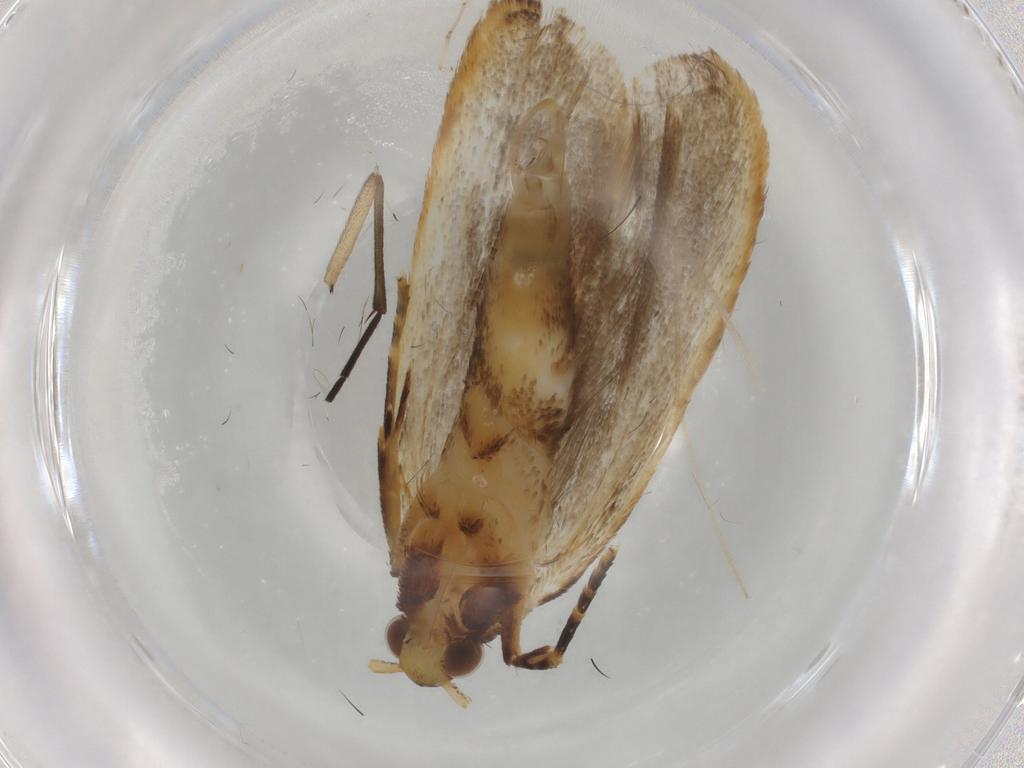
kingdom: Animalia
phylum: Arthropoda
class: Insecta
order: Lepidoptera
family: Lecithoceridae
